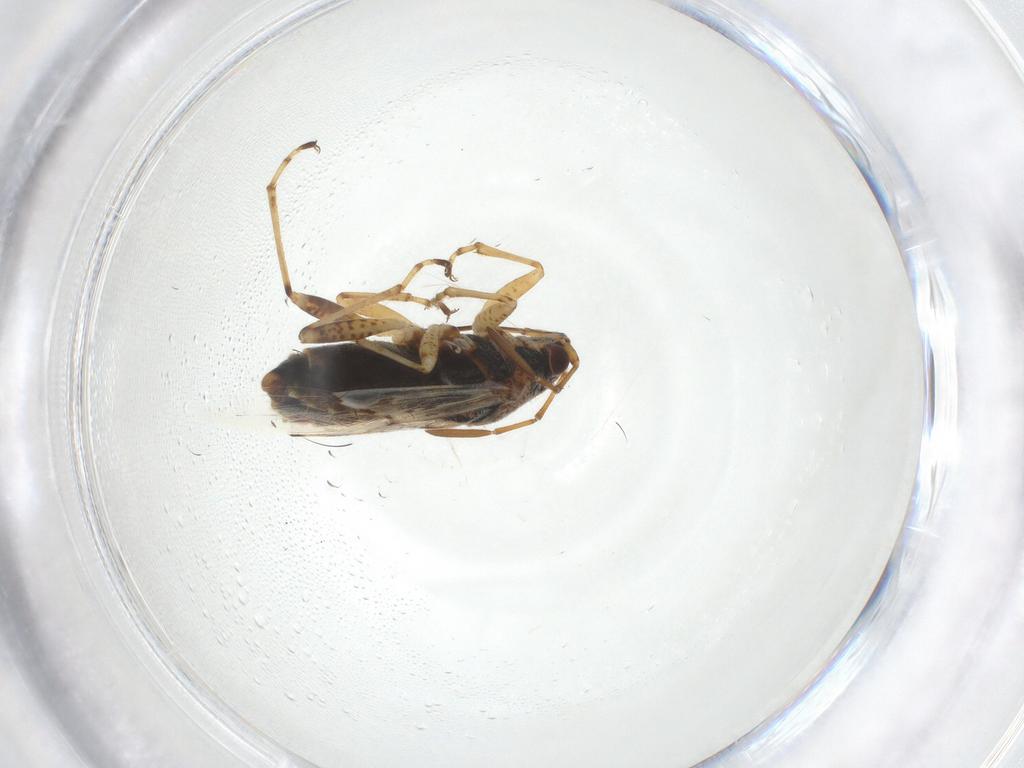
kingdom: Animalia
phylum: Arthropoda
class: Insecta
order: Hemiptera
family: Lygaeidae
